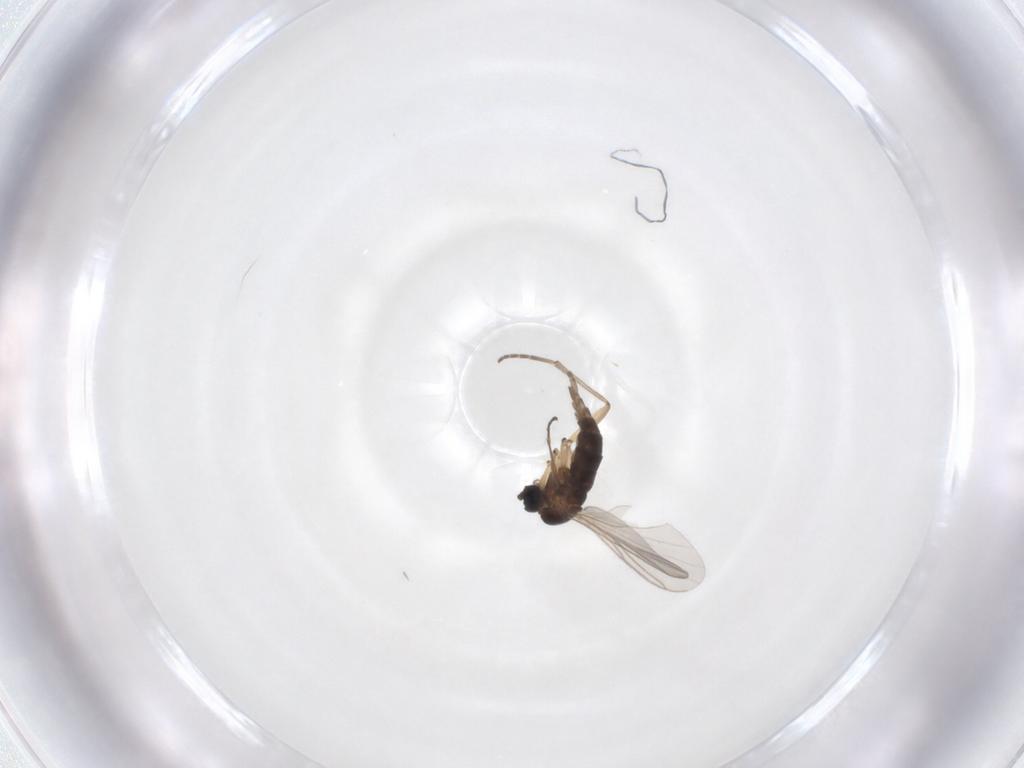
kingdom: Animalia
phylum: Arthropoda
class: Insecta
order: Diptera
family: Sciaridae
